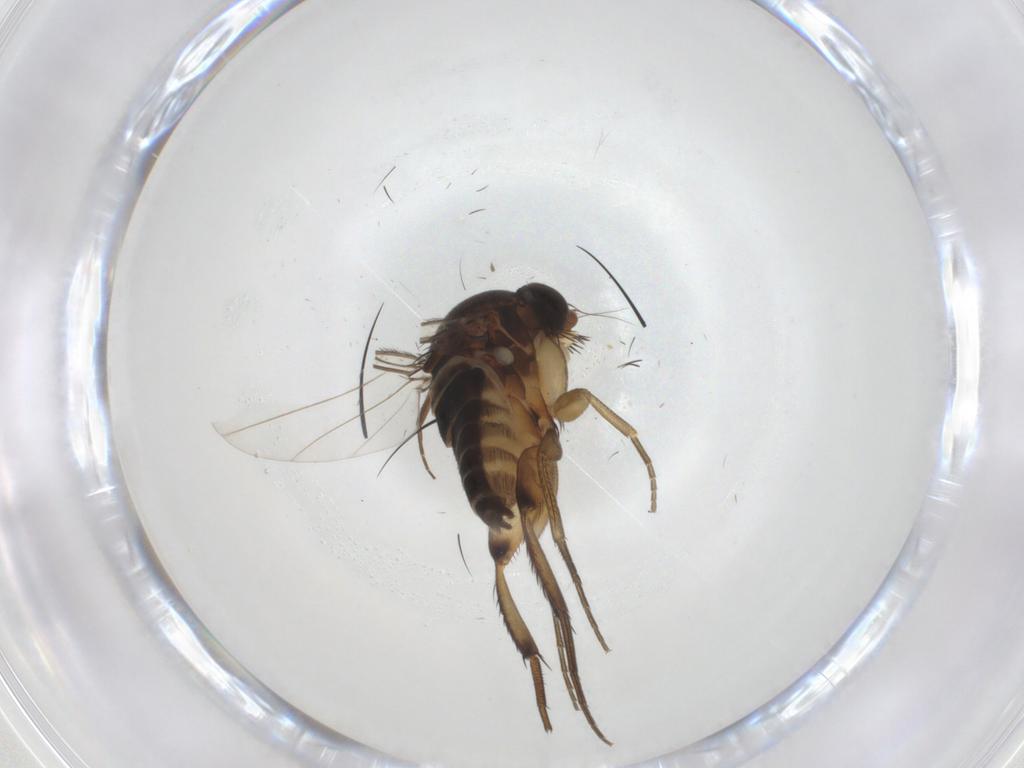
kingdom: Animalia
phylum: Arthropoda
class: Insecta
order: Diptera
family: Phoridae
